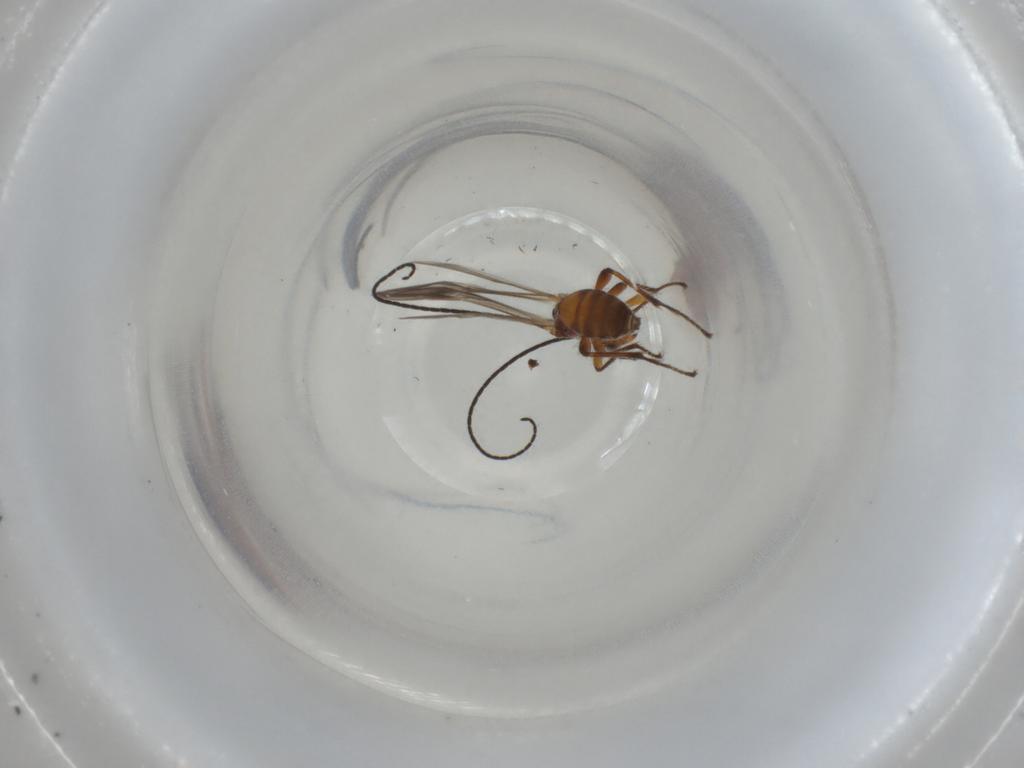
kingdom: Animalia
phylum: Arthropoda
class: Insecta
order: Hymenoptera
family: Braconidae
